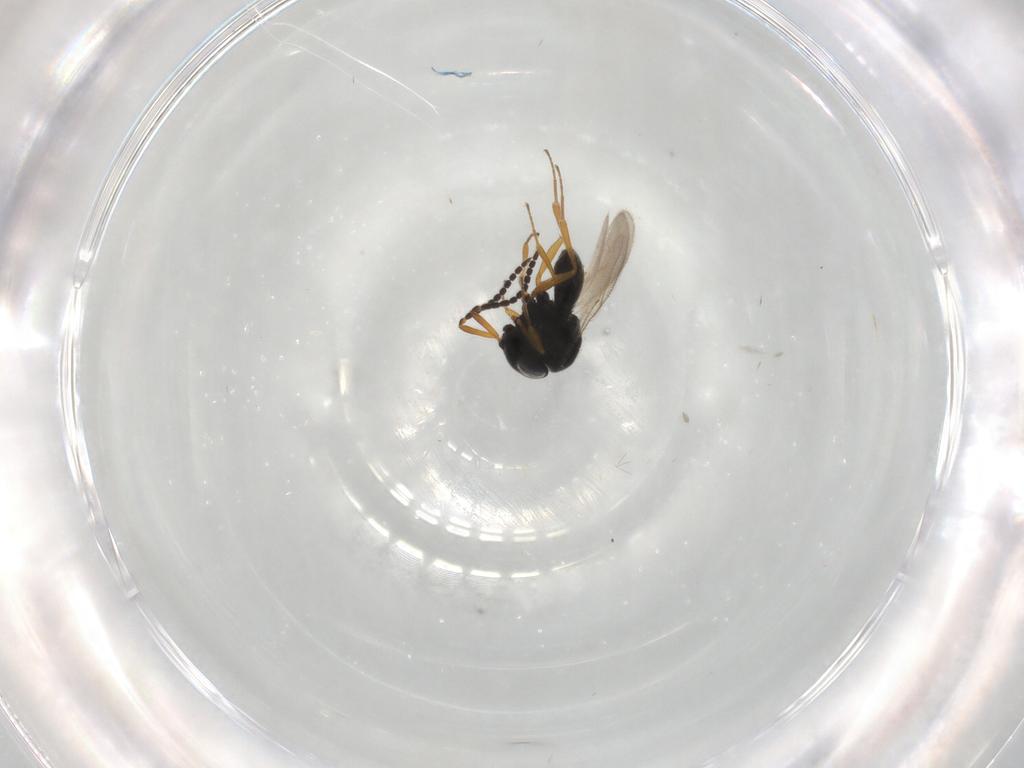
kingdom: Animalia
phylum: Arthropoda
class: Insecta
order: Hymenoptera
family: Scelionidae
